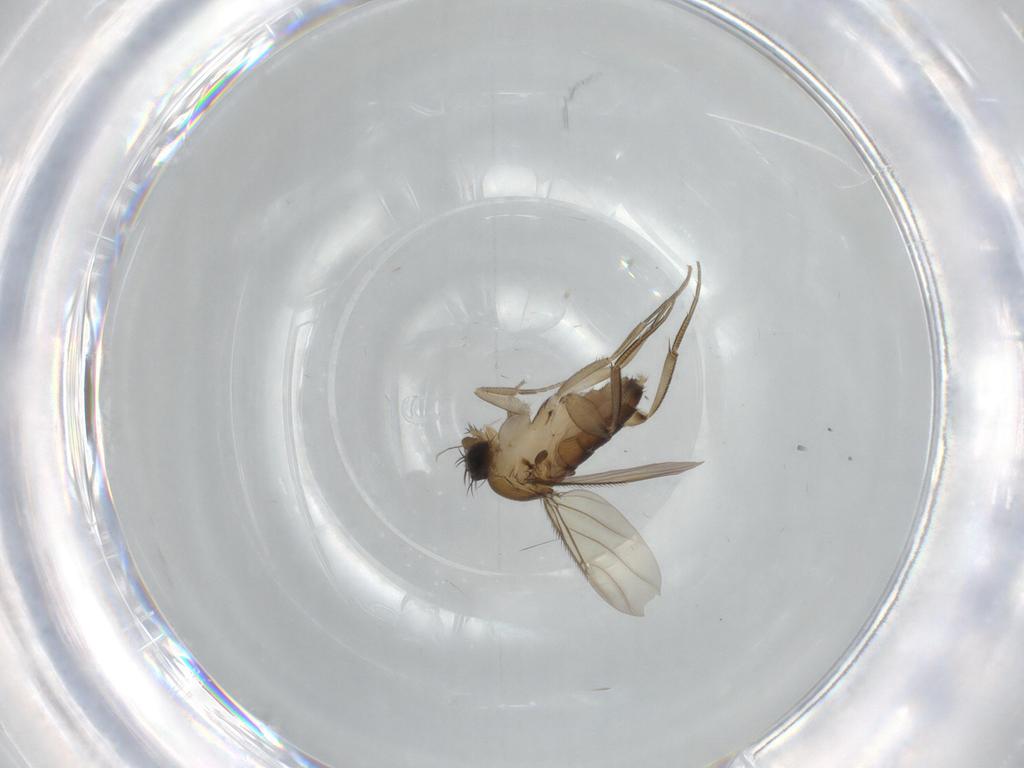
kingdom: Animalia
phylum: Arthropoda
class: Insecta
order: Diptera
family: Phoridae
